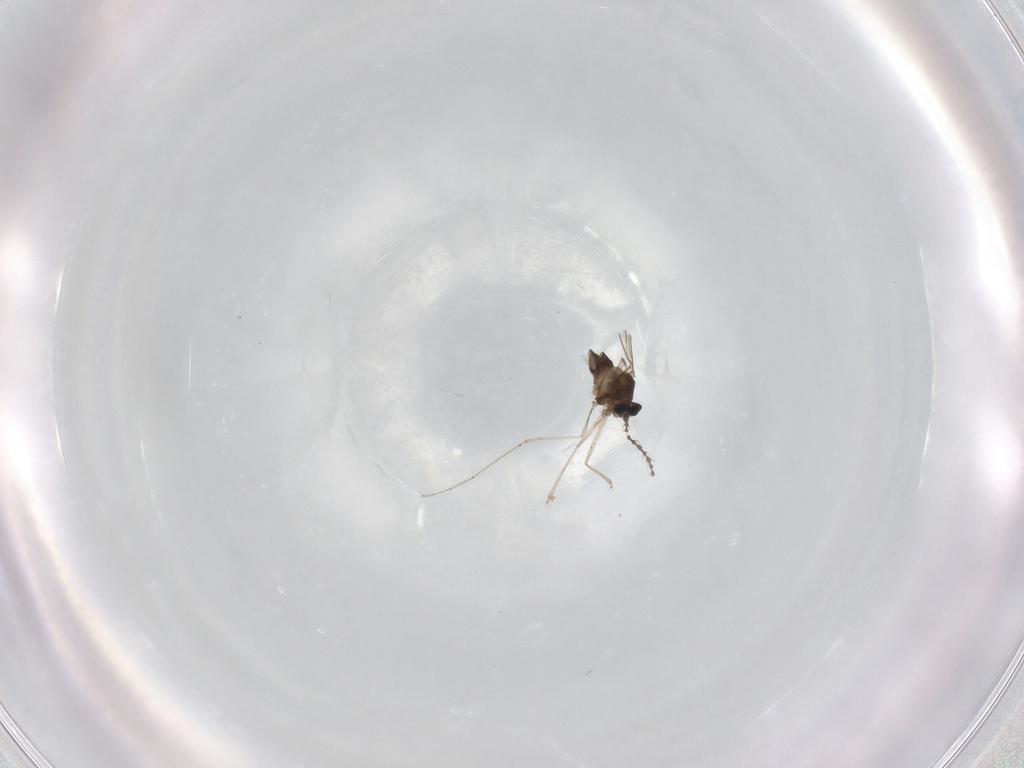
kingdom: Animalia
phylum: Arthropoda
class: Insecta
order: Diptera
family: Cecidomyiidae
